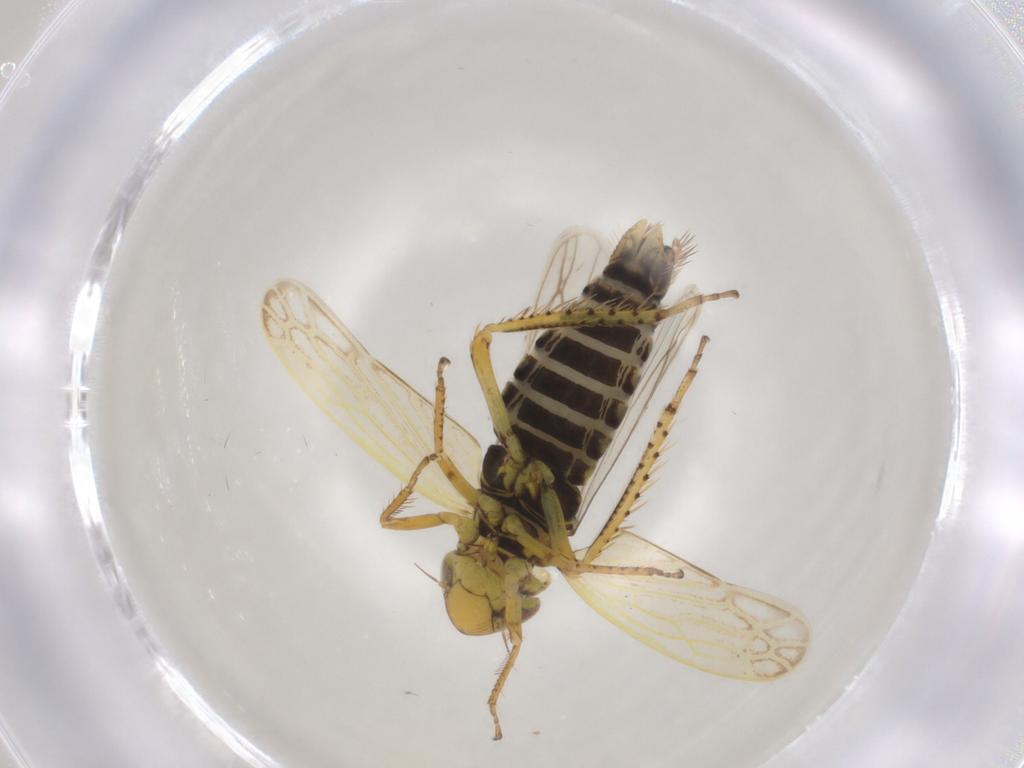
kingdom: Animalia
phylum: Arthropoda
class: Insecta
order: Hemiptera
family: Cicadellidae
